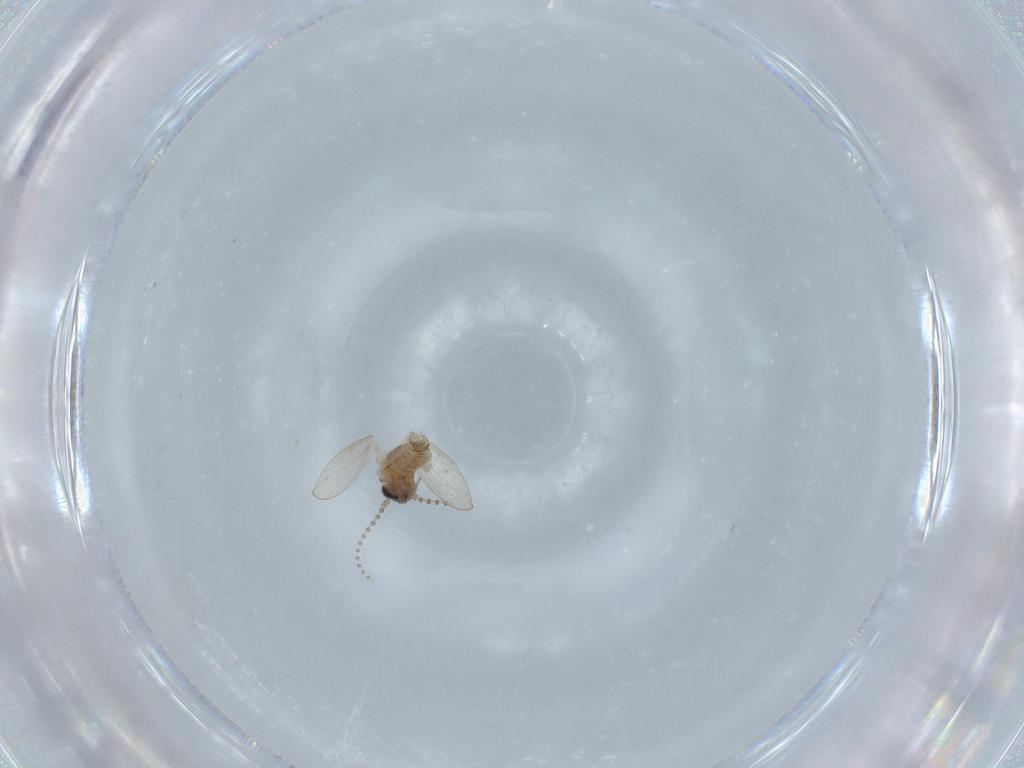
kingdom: Animalia
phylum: Arthropoda
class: Insecta
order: Diptera
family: Psychodidae
